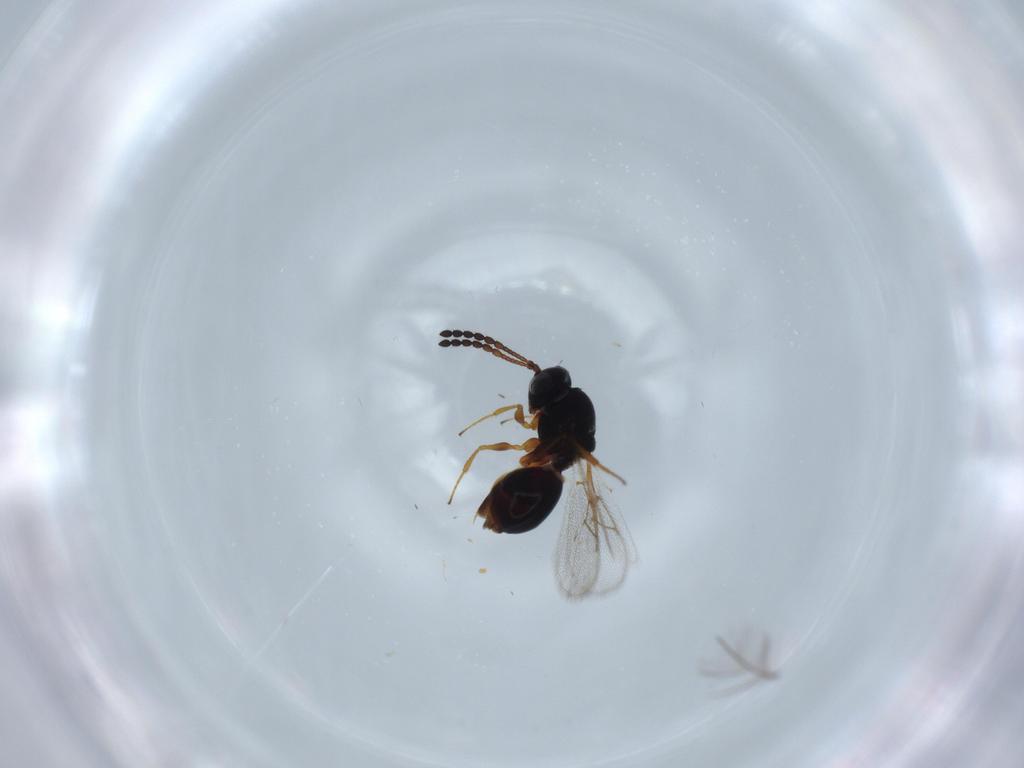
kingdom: Animalia
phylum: Arthropoda
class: Insecta
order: Hymenoptera
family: Figitidae
